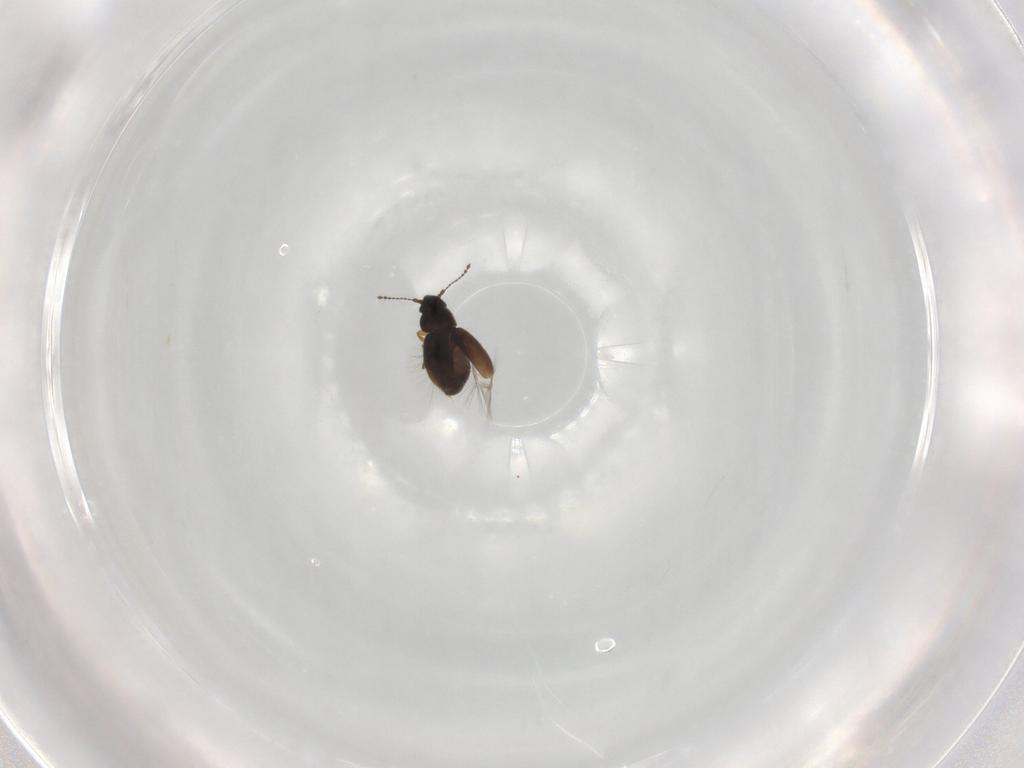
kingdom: Animalia
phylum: Arthropoda
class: Insecta
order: Coleoptera
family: Ptiliidae
